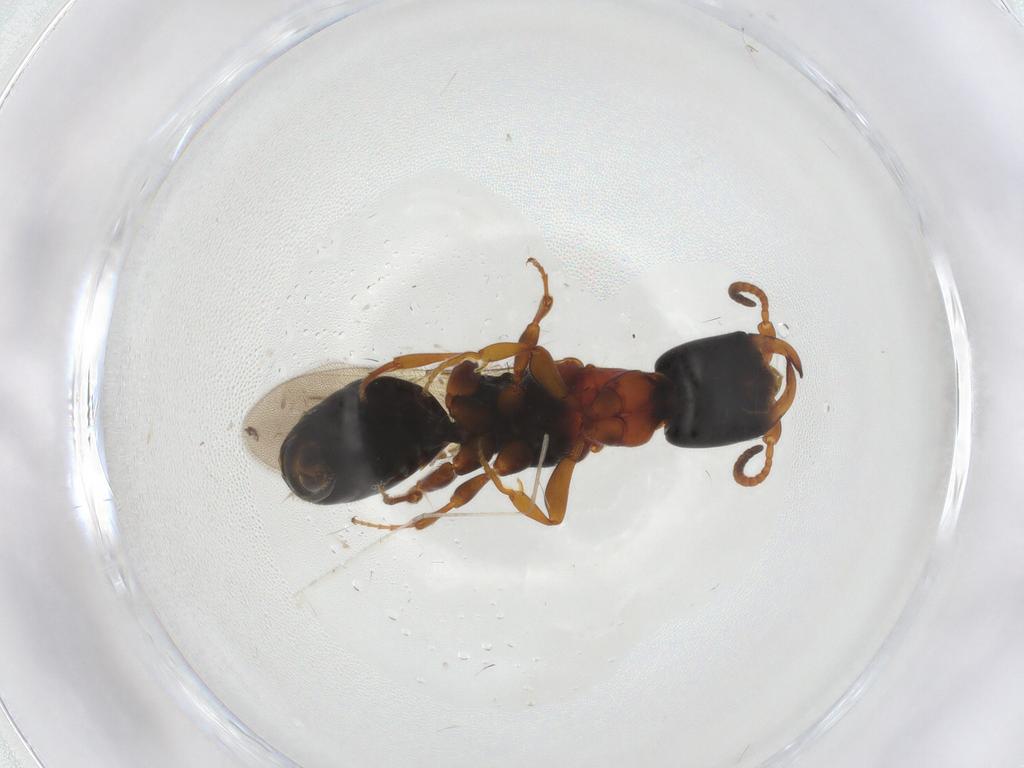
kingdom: Animalia
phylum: Arthropoda
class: Insecta
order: Hymenoptera
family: Bethylidae
